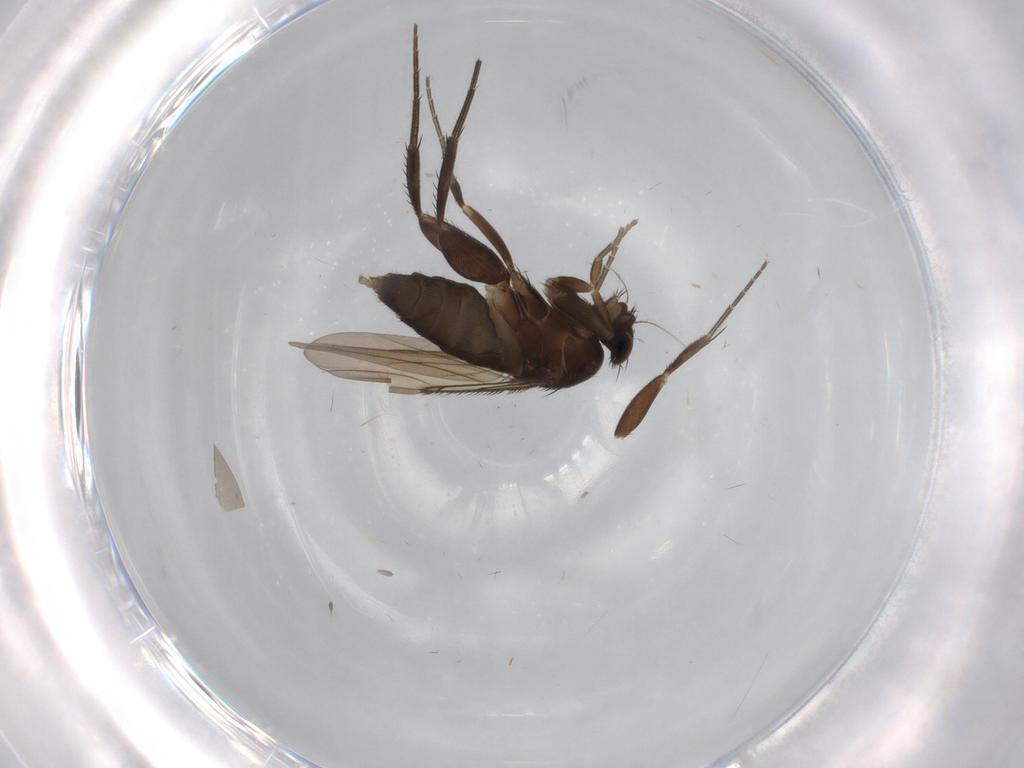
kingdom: Animalia
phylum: Arthropoda
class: Insecta
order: Diptera
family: Phoridae
